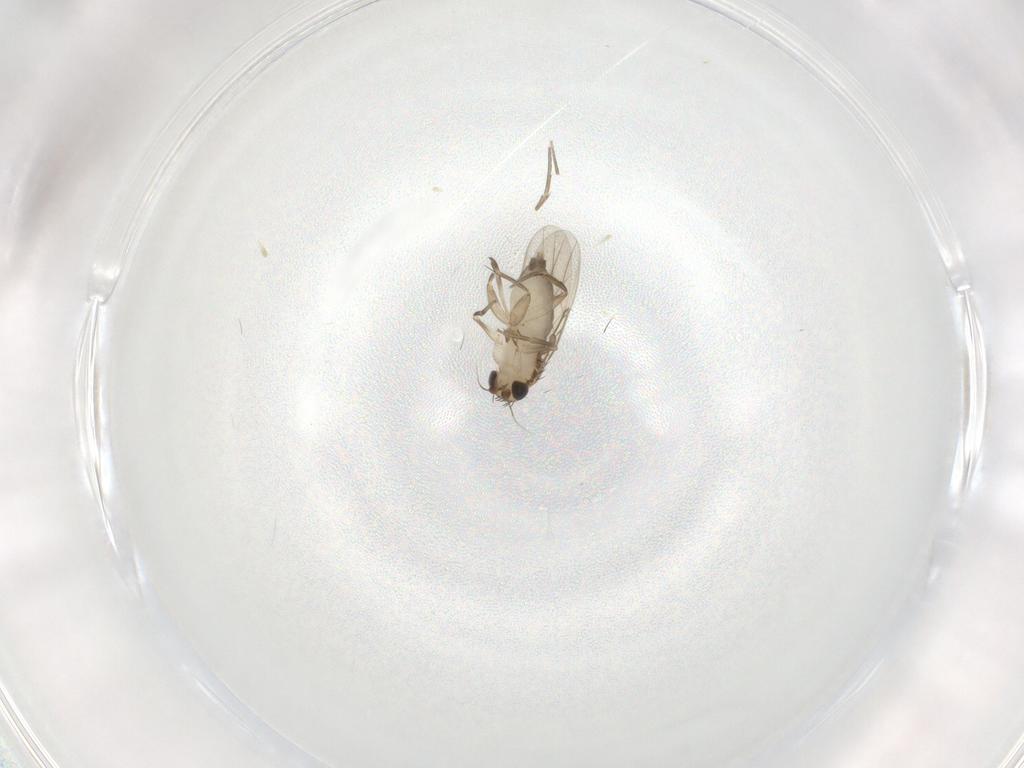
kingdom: Animalia
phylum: Arthropoda
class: Insecta
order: Diptera
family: Phoridae
